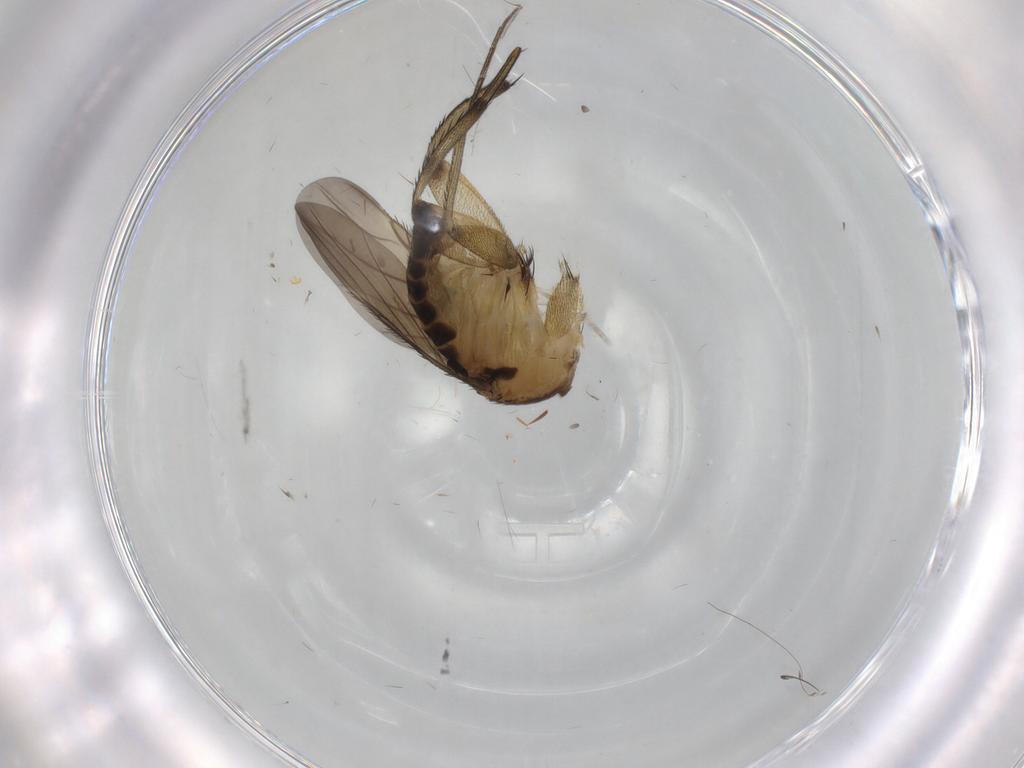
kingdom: Animalia
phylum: Arthropoda
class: Insecta
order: Diptera
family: Phoridae
